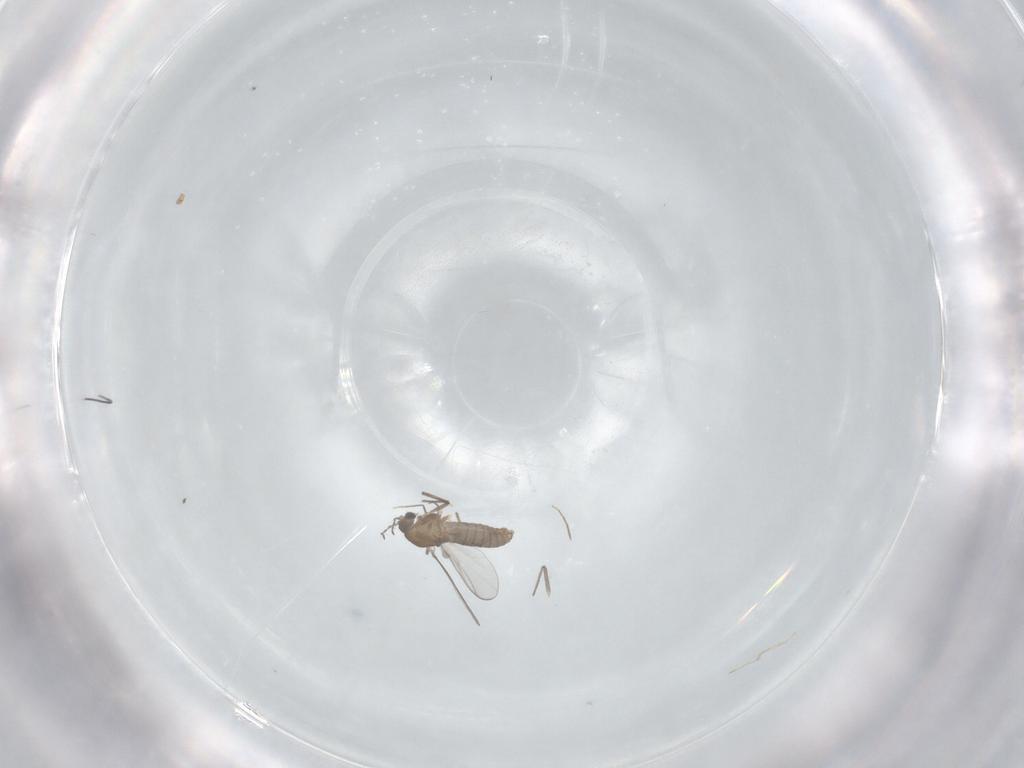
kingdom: Animalia
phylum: Arthropoda
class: Insecta
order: Diptera
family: Chironomidae
